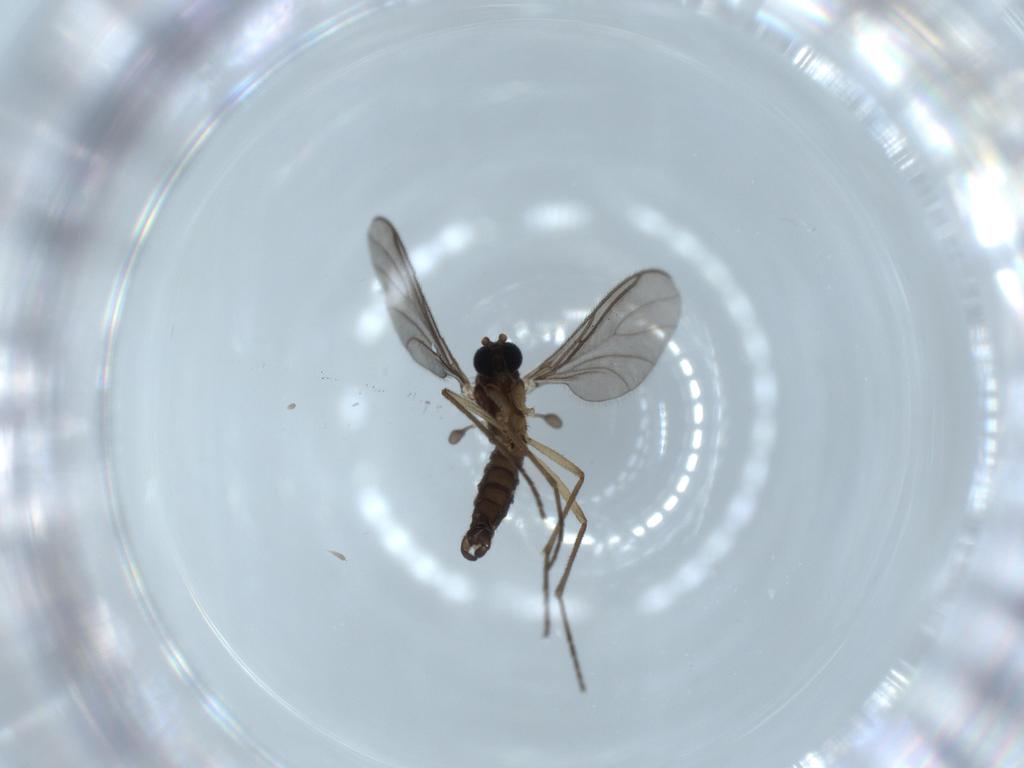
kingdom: Animalia
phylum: Arthropoda
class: Insecta
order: Diptera
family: Sciaridae
